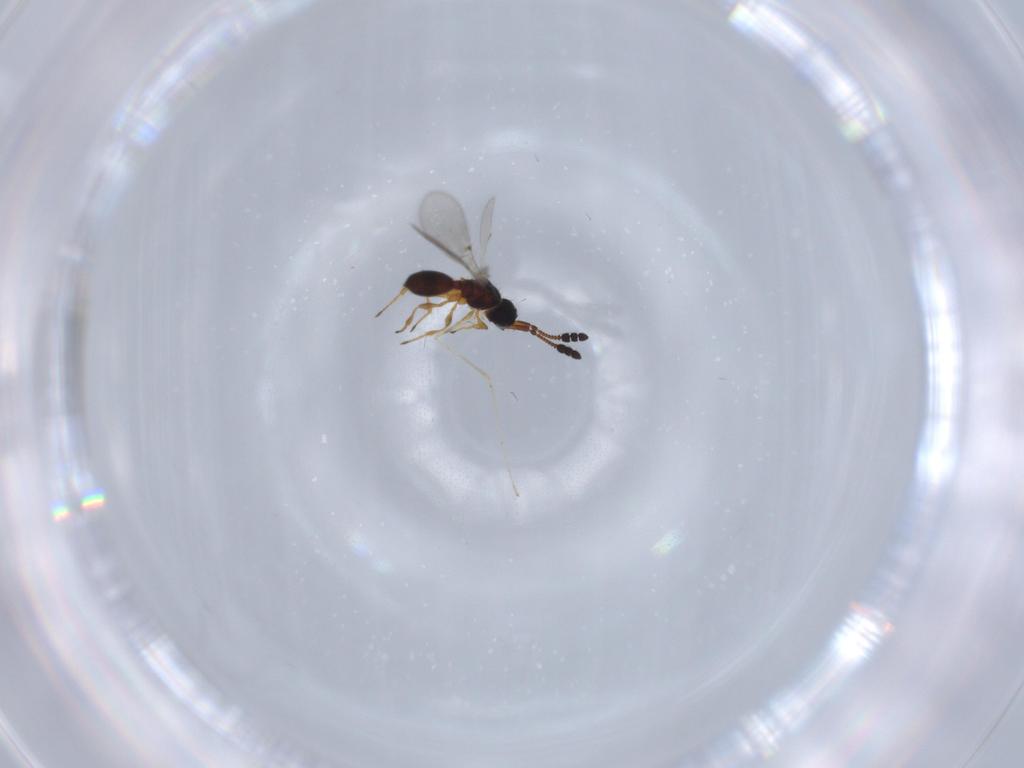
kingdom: Animalia
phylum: Arthropoda
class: Insecta
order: Hymenoptera
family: Diapriidae
